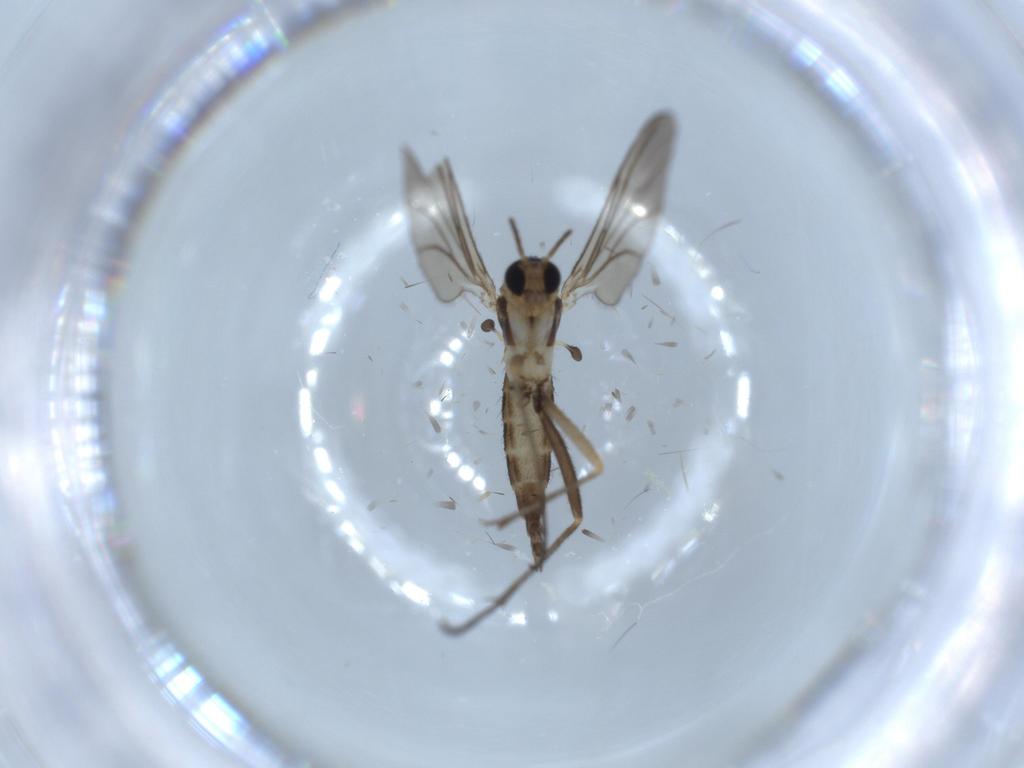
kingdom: Animalia
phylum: Arthropoda
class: Insecta
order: Diptera
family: Sciaridae
